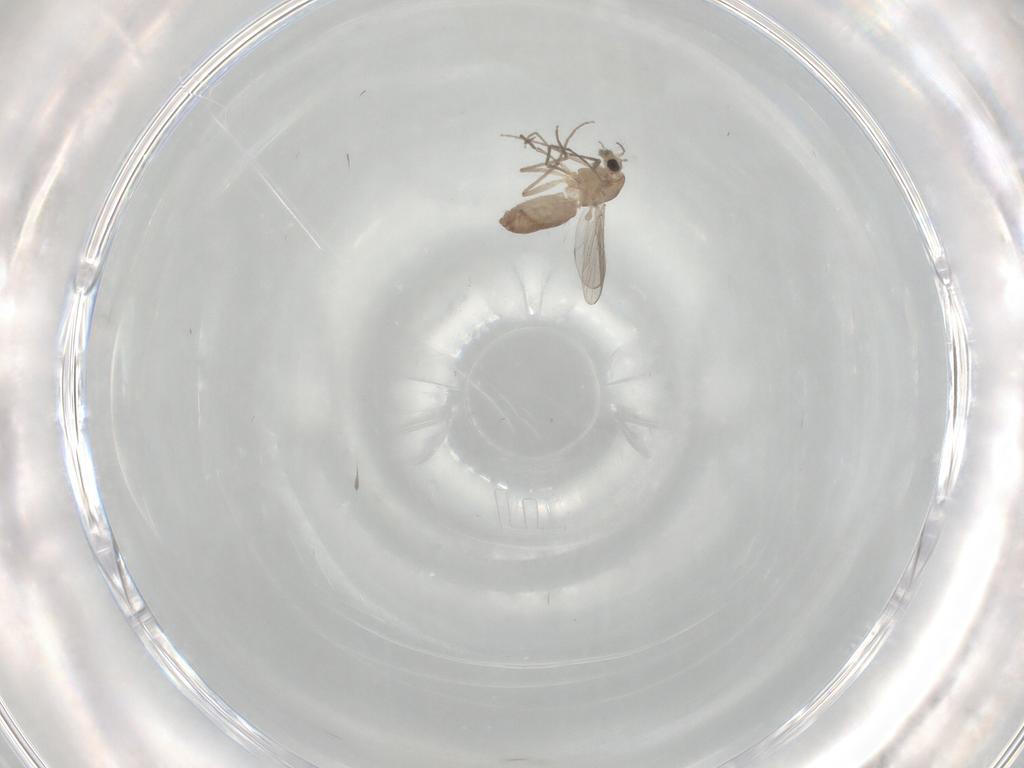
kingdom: Animalia
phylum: Arthropoda
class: Insecta
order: Diptera
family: Chironomidae
